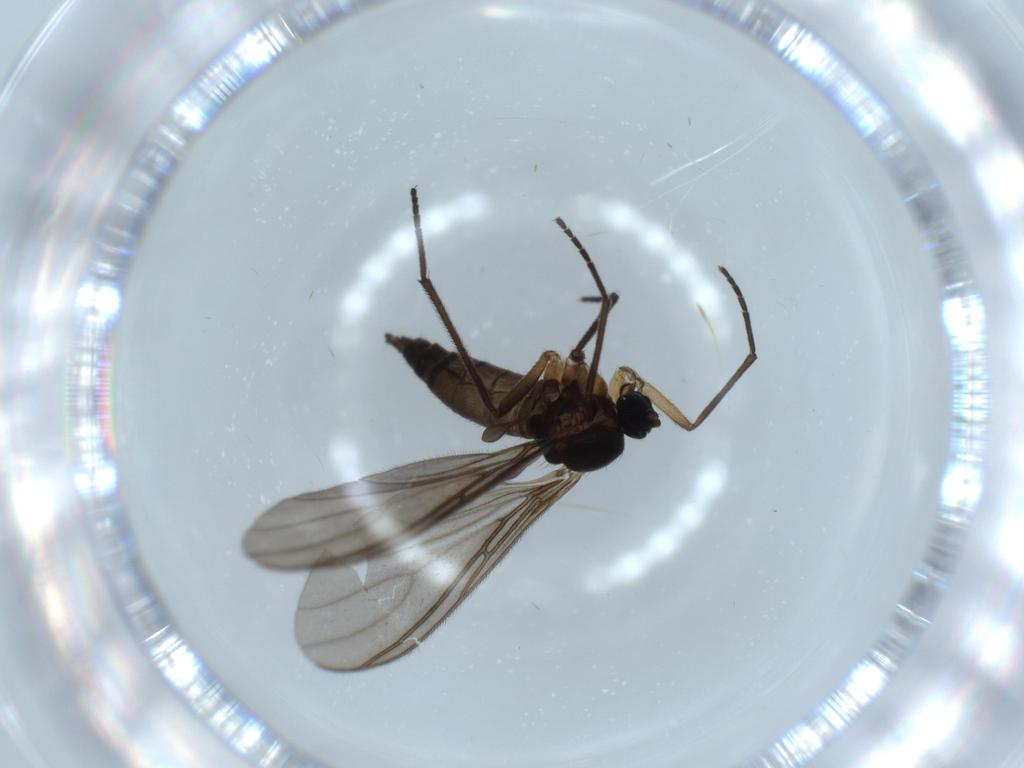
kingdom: Animalia
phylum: Arthropoda
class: Insecta
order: Diptera
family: Sciaridae
